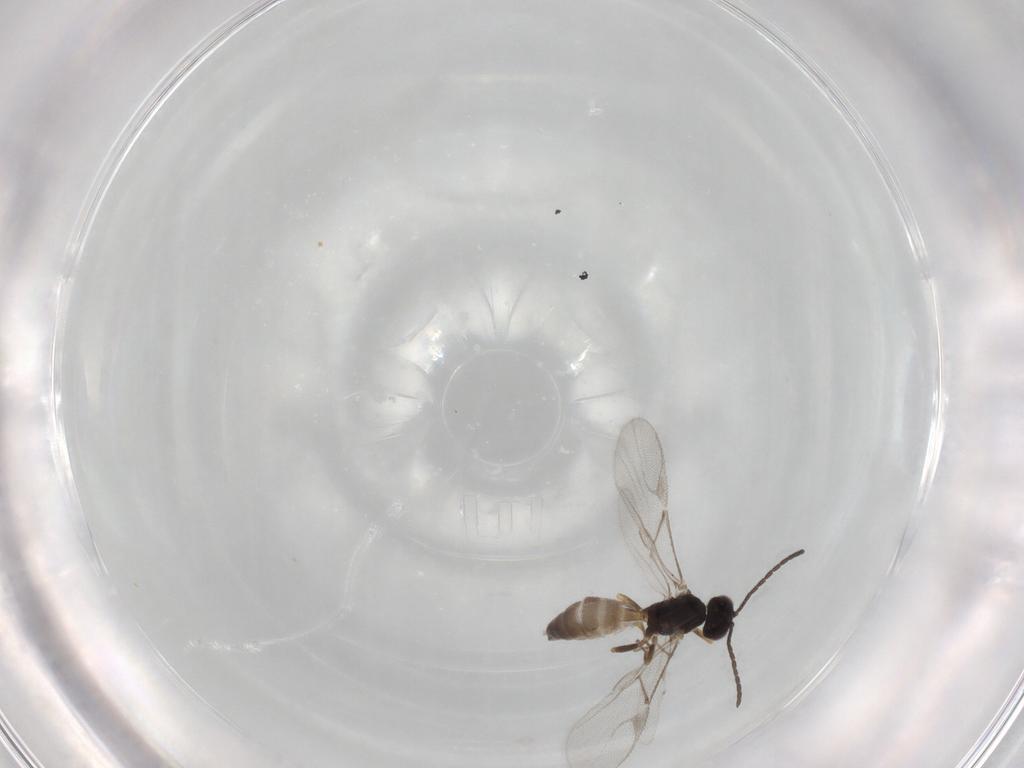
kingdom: Animalia
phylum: Arthropoda
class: Insecta
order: Hymenoptera
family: Braconidae
